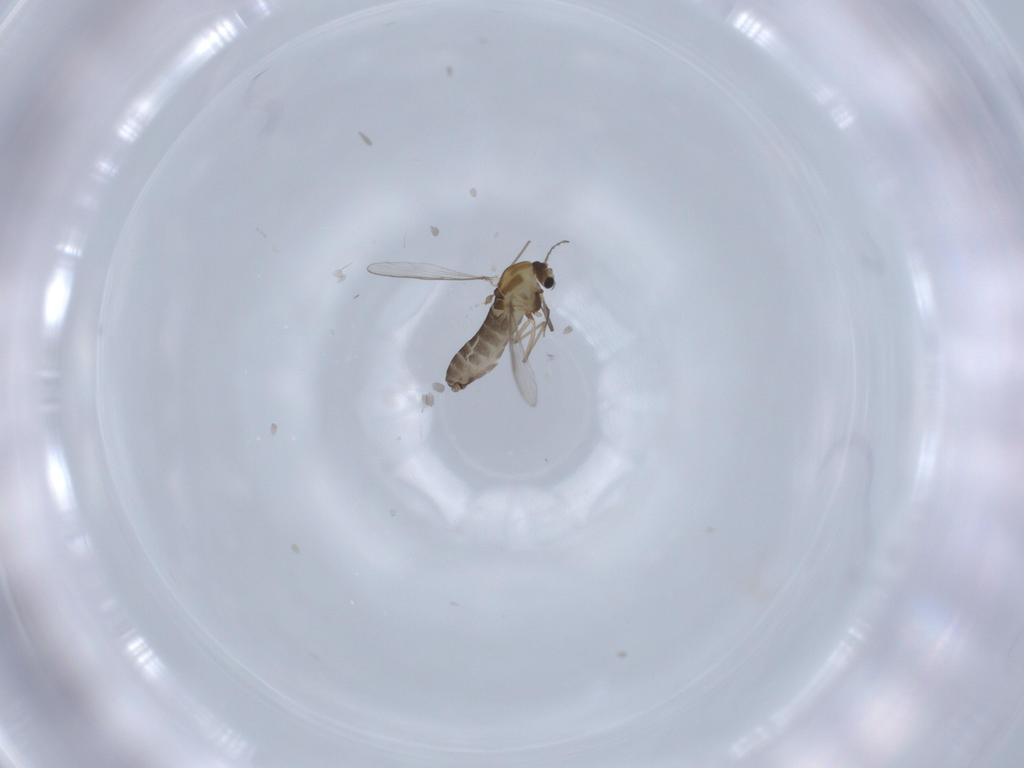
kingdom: Animalia
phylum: Arthropoda
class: Insecta
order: Diptera
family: Chironomidae
